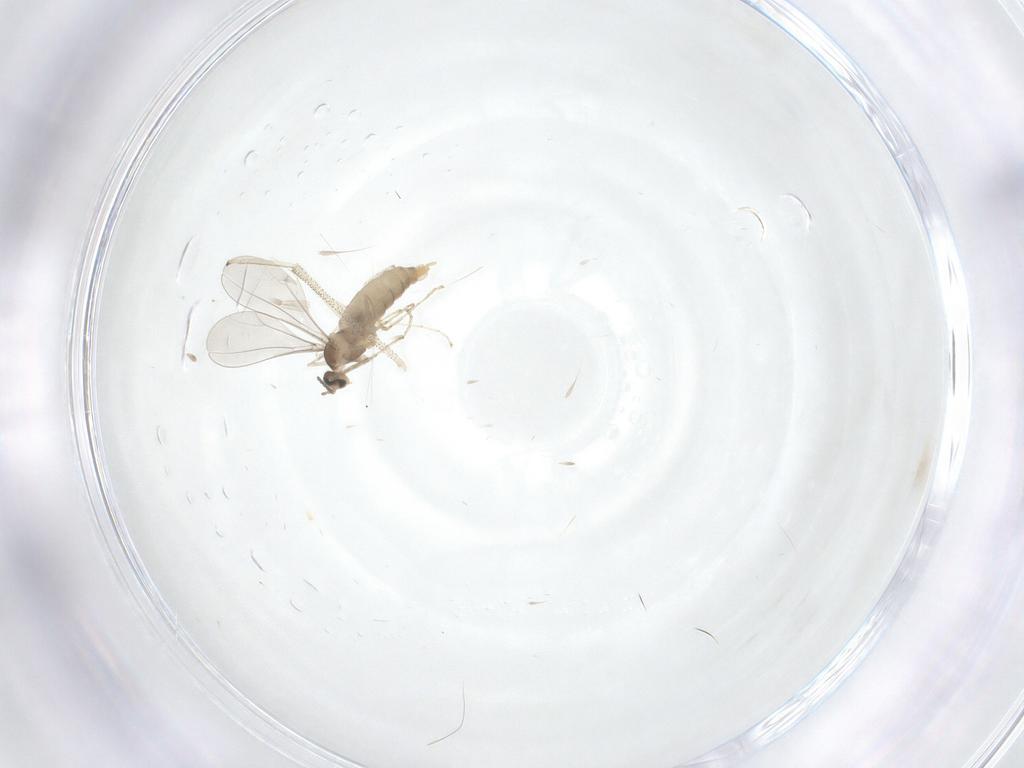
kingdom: Animalia
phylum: Arthropoda
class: Insecta
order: Diptera
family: Cecidomyiidae
